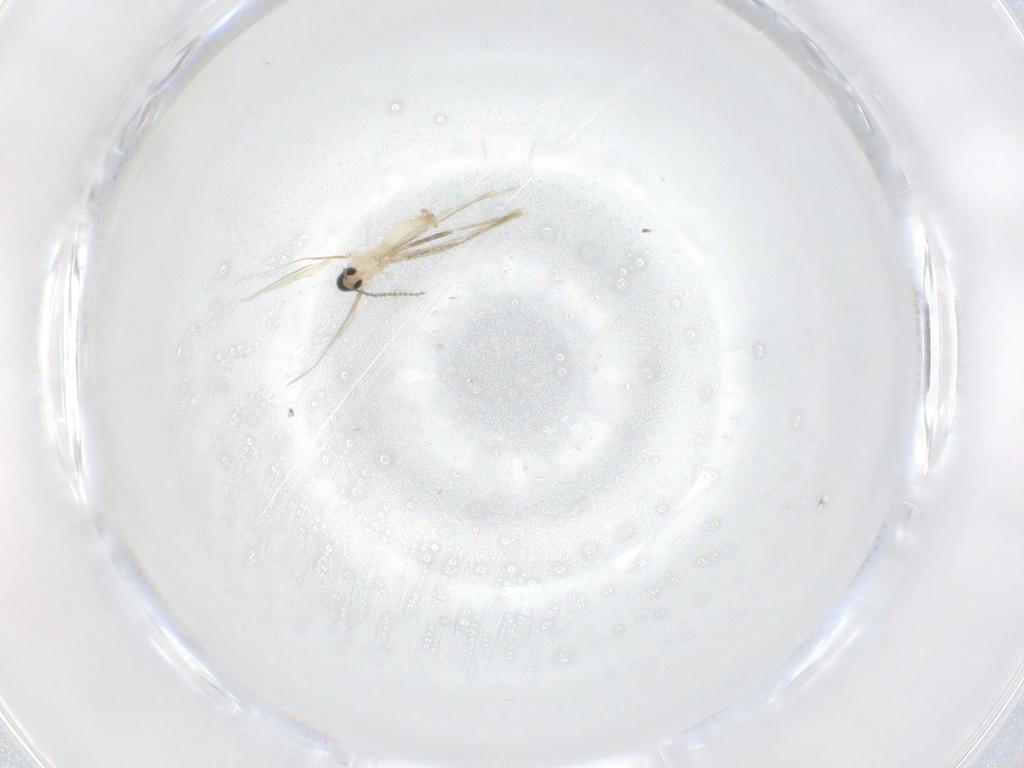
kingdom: Animalia
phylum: Arthropoda
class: Insecta
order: Diptera
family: Cecidomyiidae
